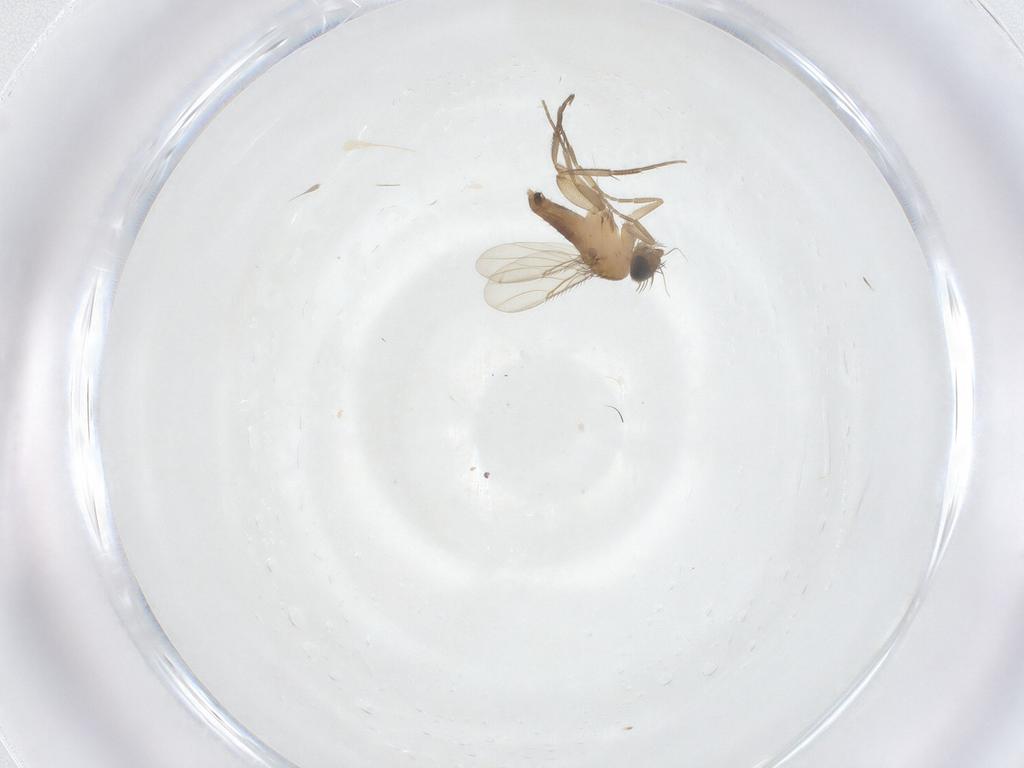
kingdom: Animalia
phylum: Arthropoda
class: Insecta
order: Diptera
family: Phoridae
